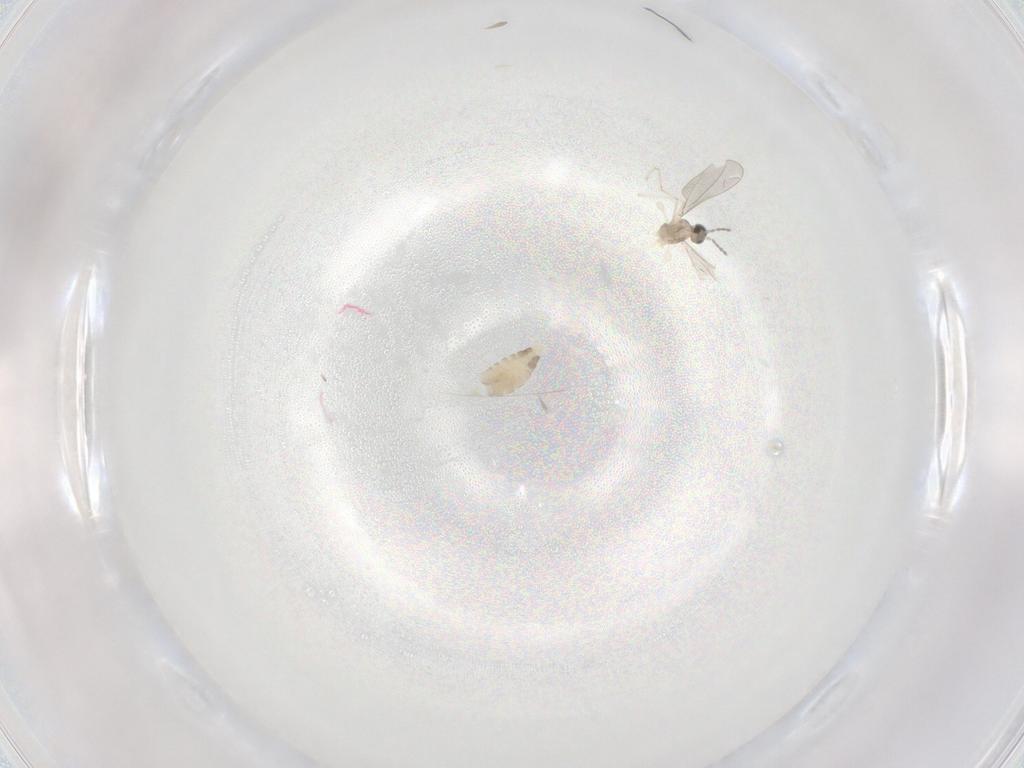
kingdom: Animalia
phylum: Arthropoda
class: Insecta
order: Diptera
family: Cecidomyiidae
